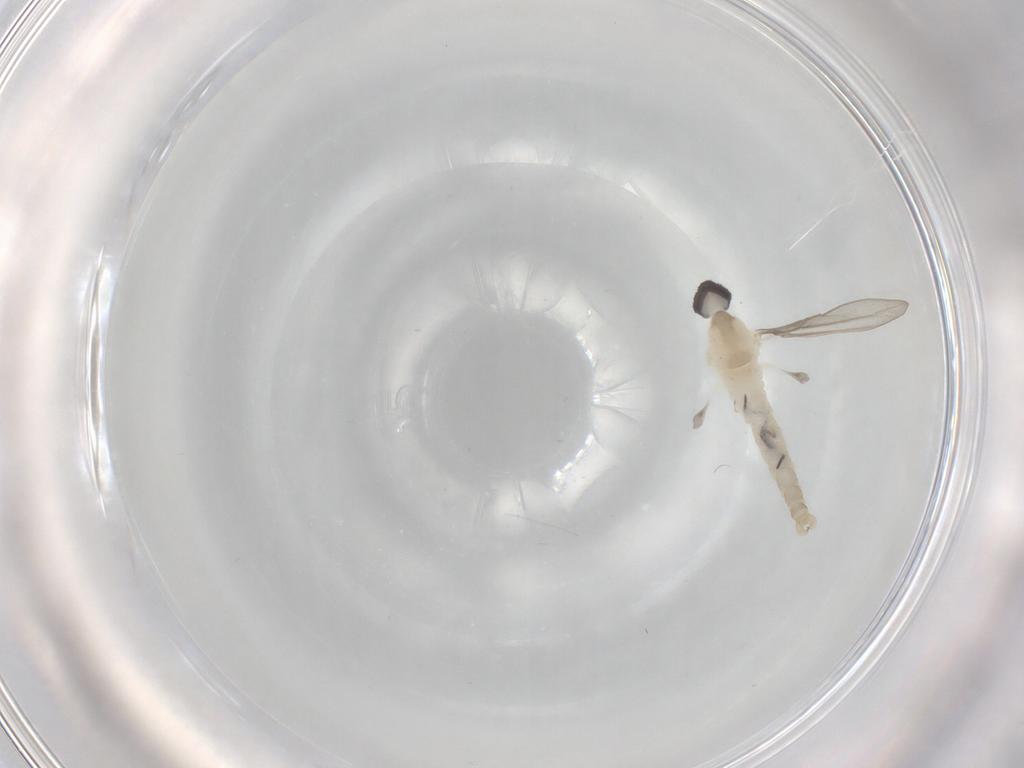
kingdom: Animalia
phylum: Arthropoda
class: Insecta
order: Diptera
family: Cecidomyiidae
